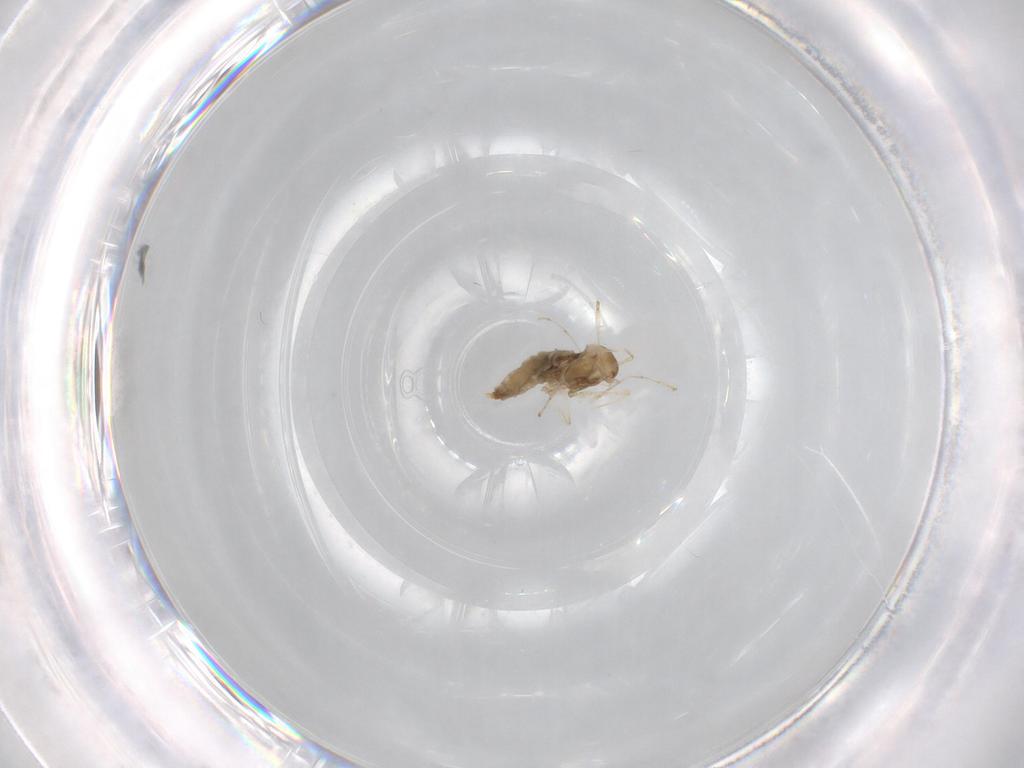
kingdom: Animalia
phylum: Arthropoda
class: Insecta
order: Diptera
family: Cecidomyiidae
